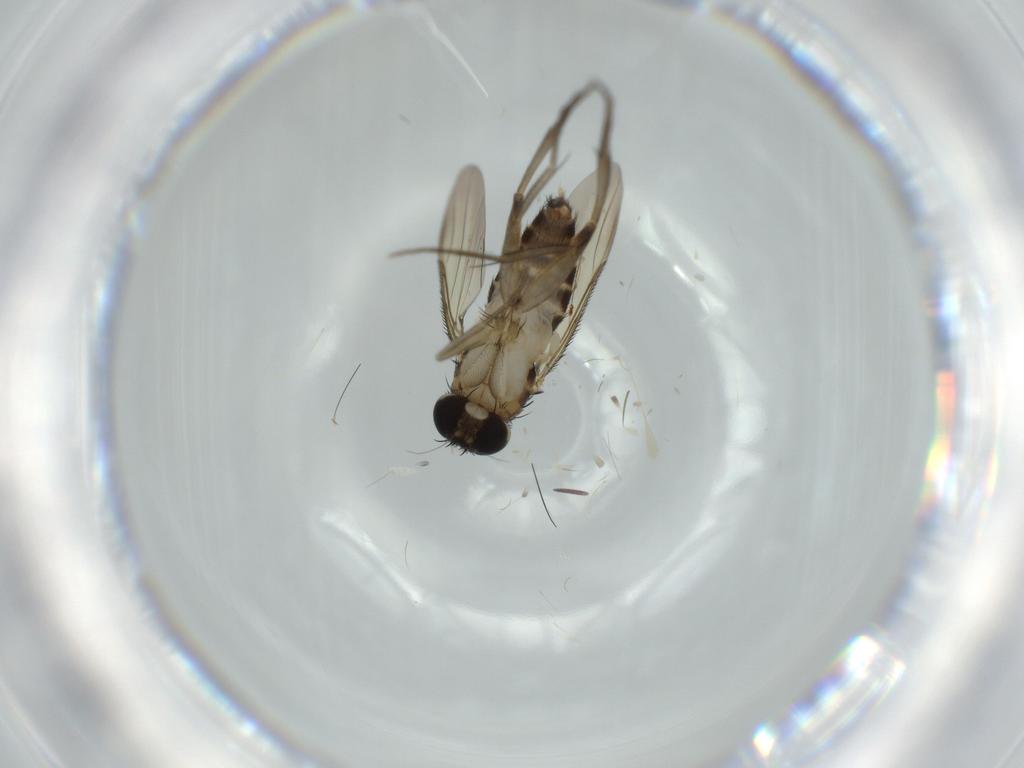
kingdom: Animalia
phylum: Arthropoda
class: Insecta
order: Diptera
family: Phoridae
